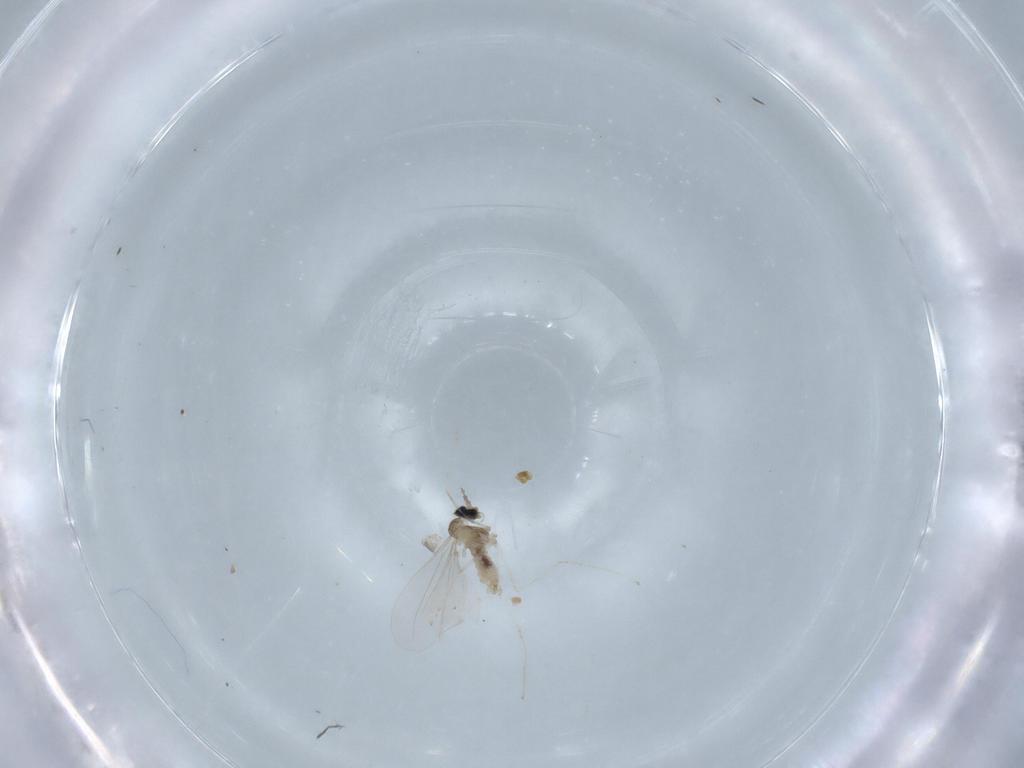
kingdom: Animalia
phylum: Arthropoda
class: Insecta
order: Diptera
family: Cecidomyiidae
